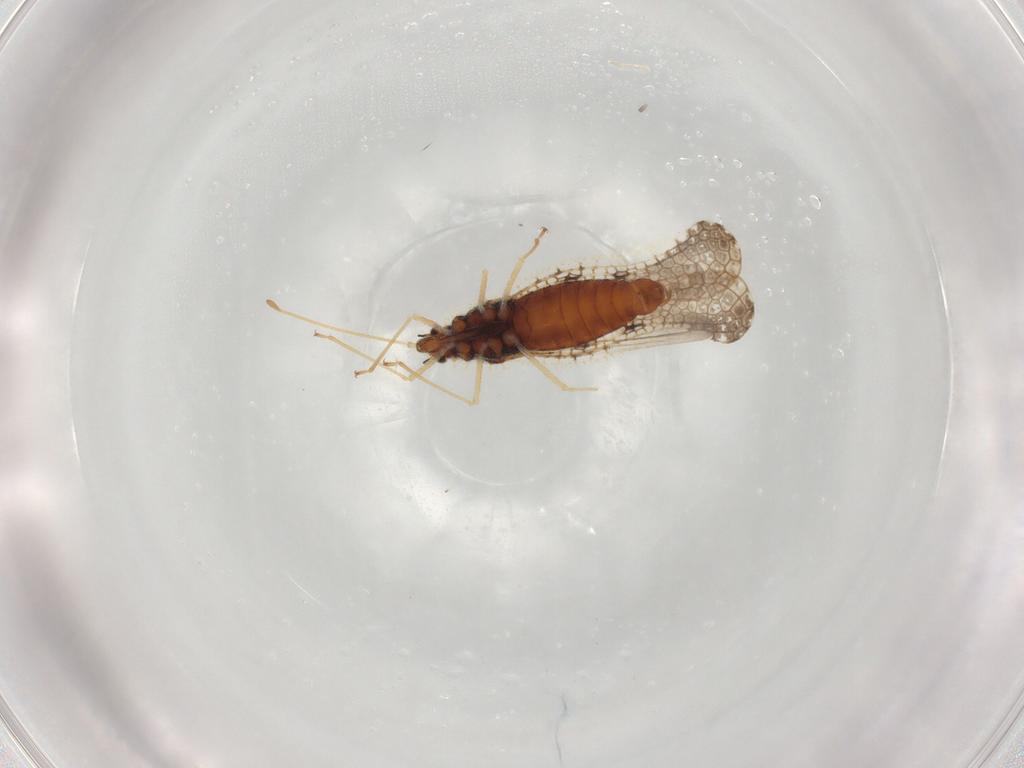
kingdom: Animalia
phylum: Arthropoda
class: Insecta
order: Hemiptera
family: Tingidae
